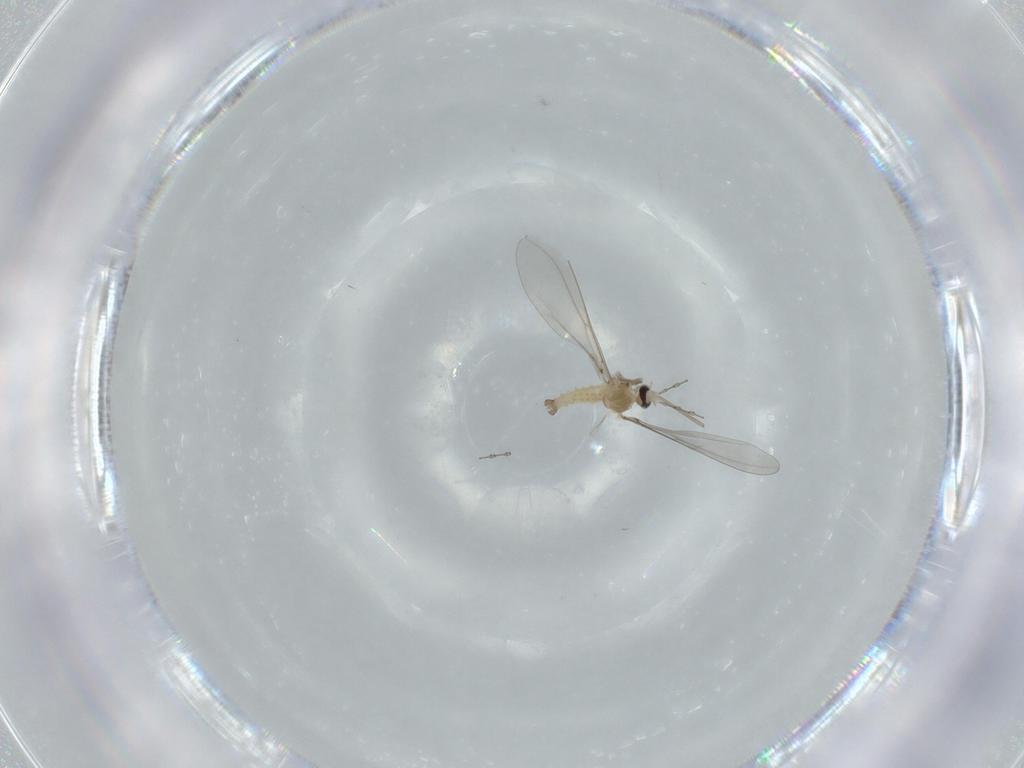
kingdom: Animalia
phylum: Arthropoda
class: Insecta
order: Diptera
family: Cecidomyiidae
